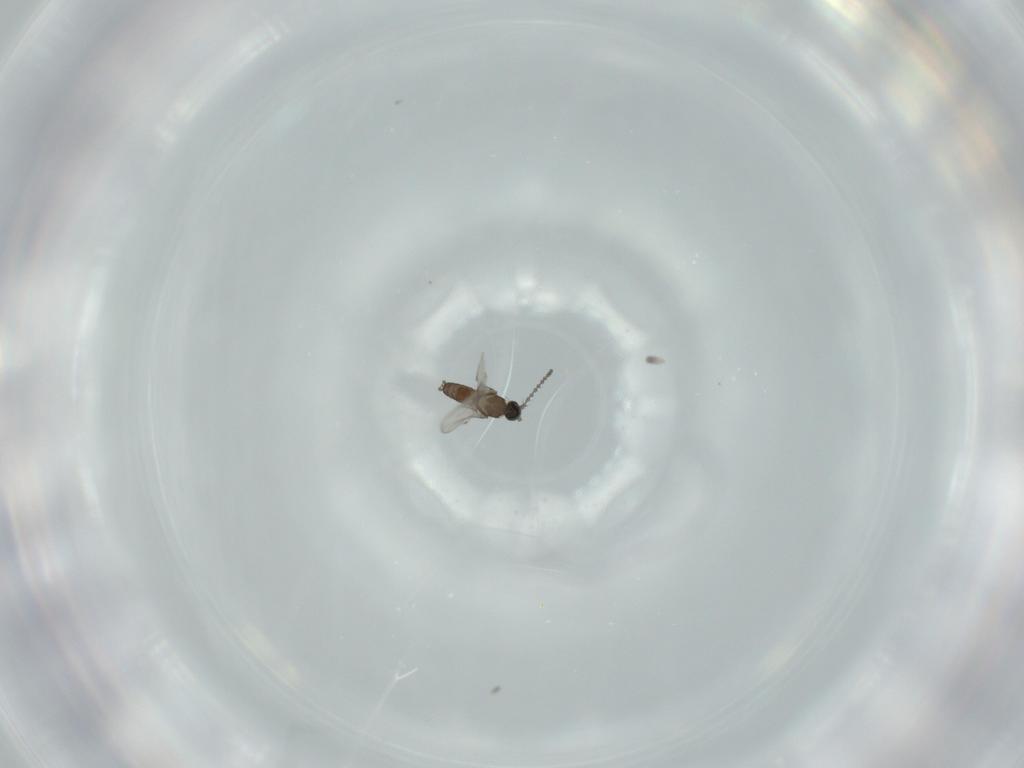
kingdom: Animalia
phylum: Arthropoda
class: Insecta
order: Diptera
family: Cecidomyiidae
